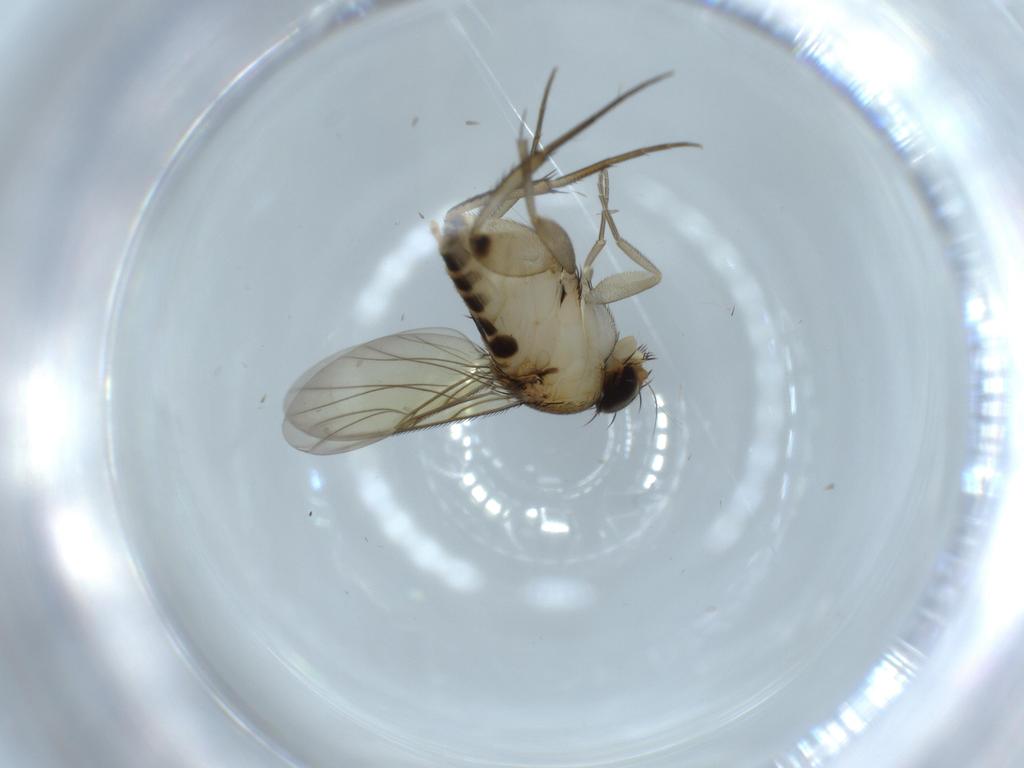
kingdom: Animalia
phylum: Arthropoda
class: Insecta
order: Diptera
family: Phoridae
